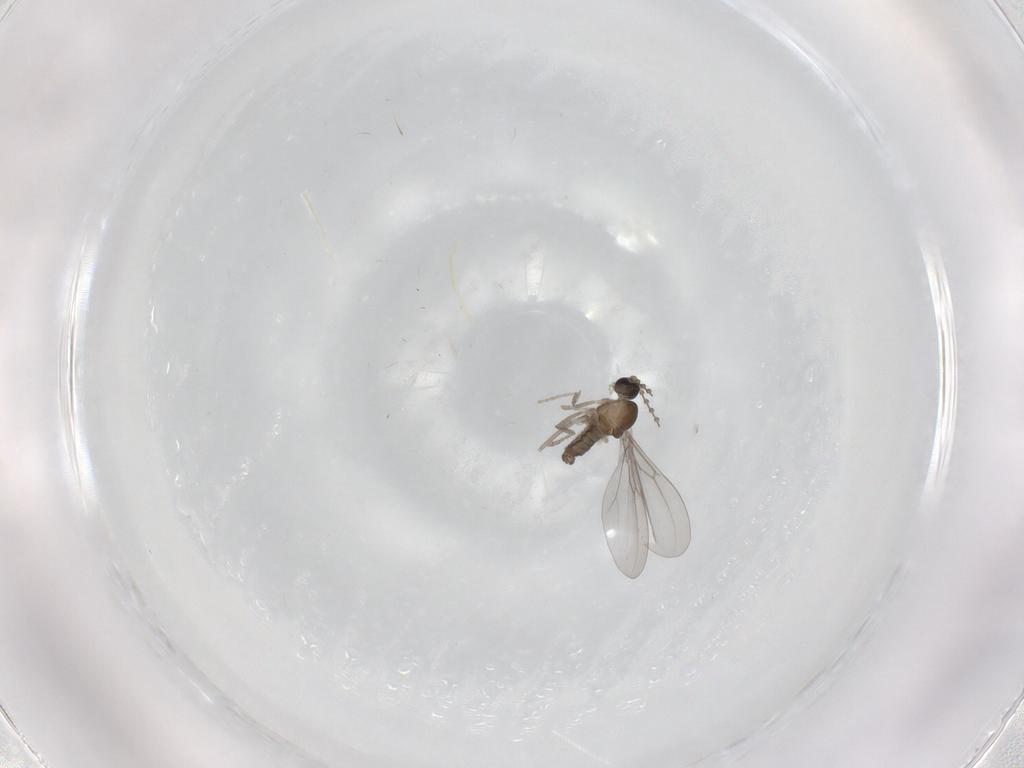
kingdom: Animalia
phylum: Arthropoda
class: Insecta
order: Diptera
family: Cecidomyiidae
